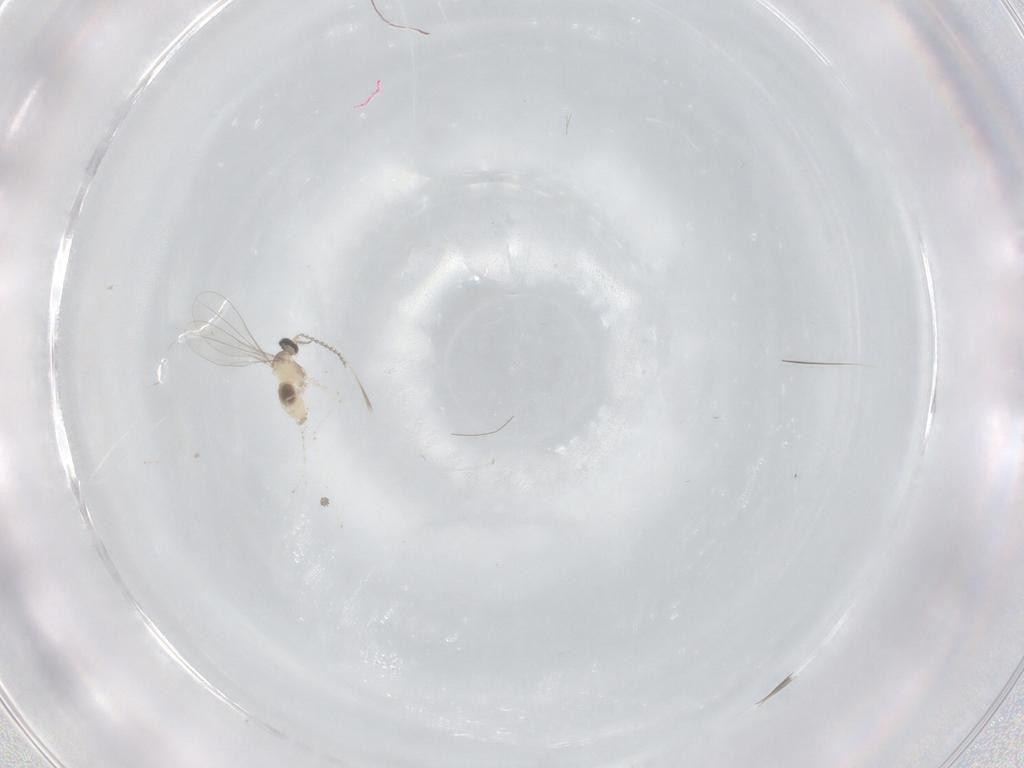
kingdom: Animalia
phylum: Arthropoda
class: Insecta
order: Diptera
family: Cecidomyiidae
